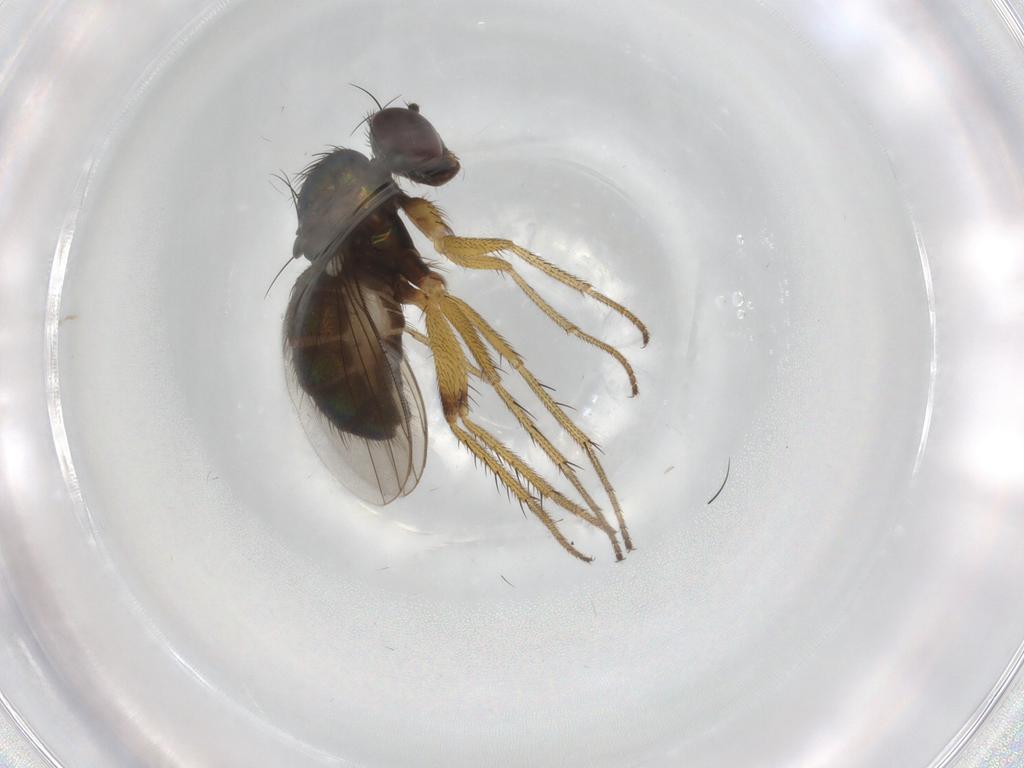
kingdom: Animalia
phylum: Arthropoda
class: Insecta
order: Diptera
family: Dolichopodidae
